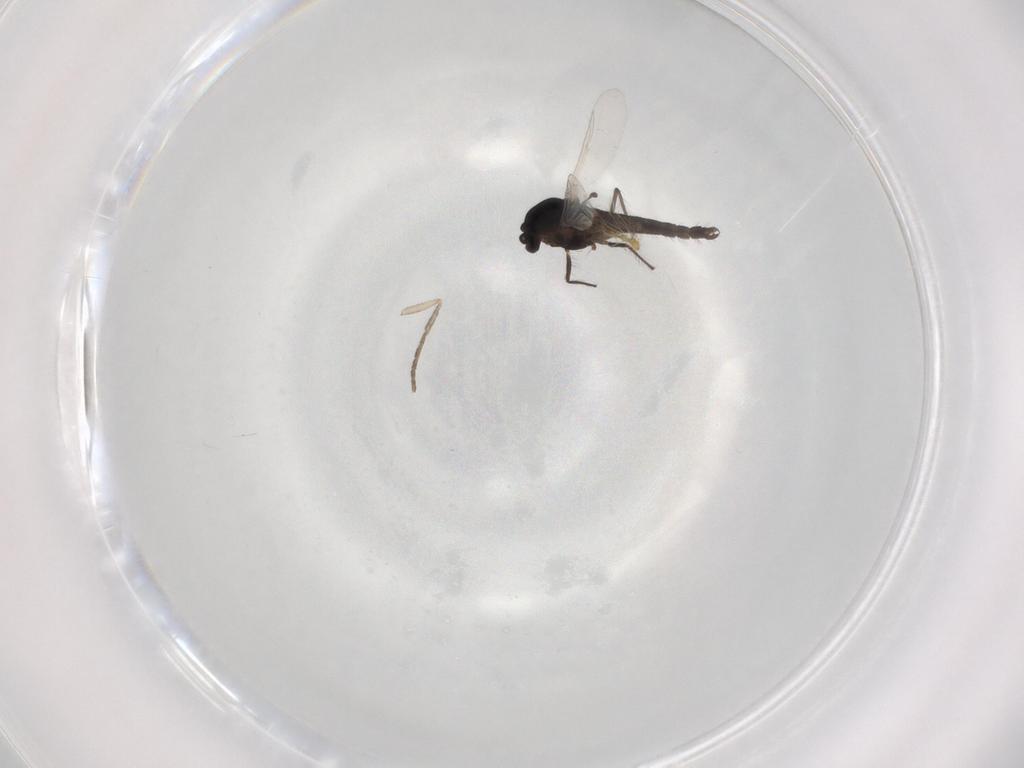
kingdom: Animalia
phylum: Arthropoda
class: Insecta
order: Diptera
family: Chironomidae
